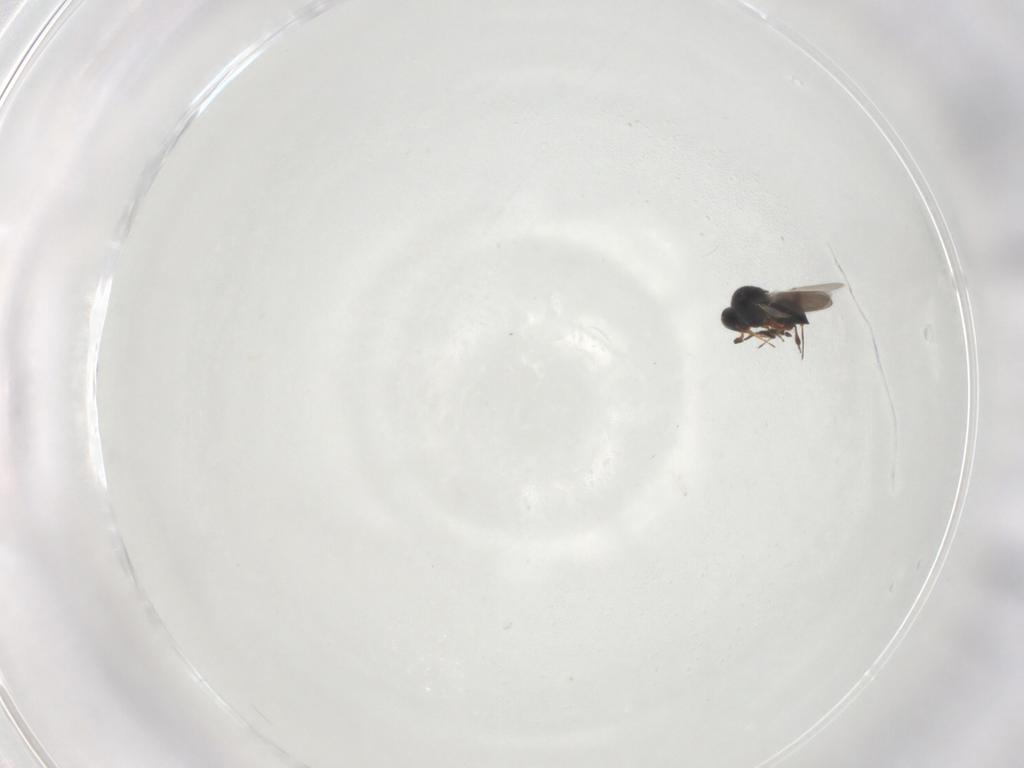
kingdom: Animalia
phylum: Arthropoda
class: Insecta
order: Hymenoptera
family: Platygastridae
